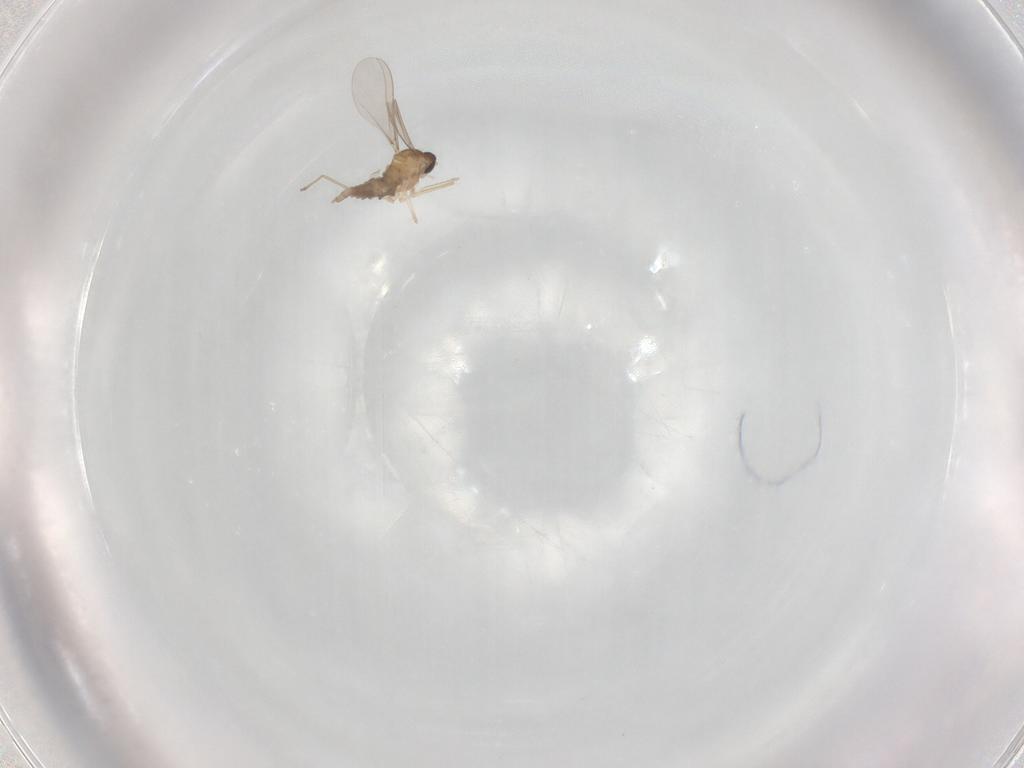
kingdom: Animalia
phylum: Arthropoda
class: Insecta
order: Diptera
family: Cecidomyiidae
